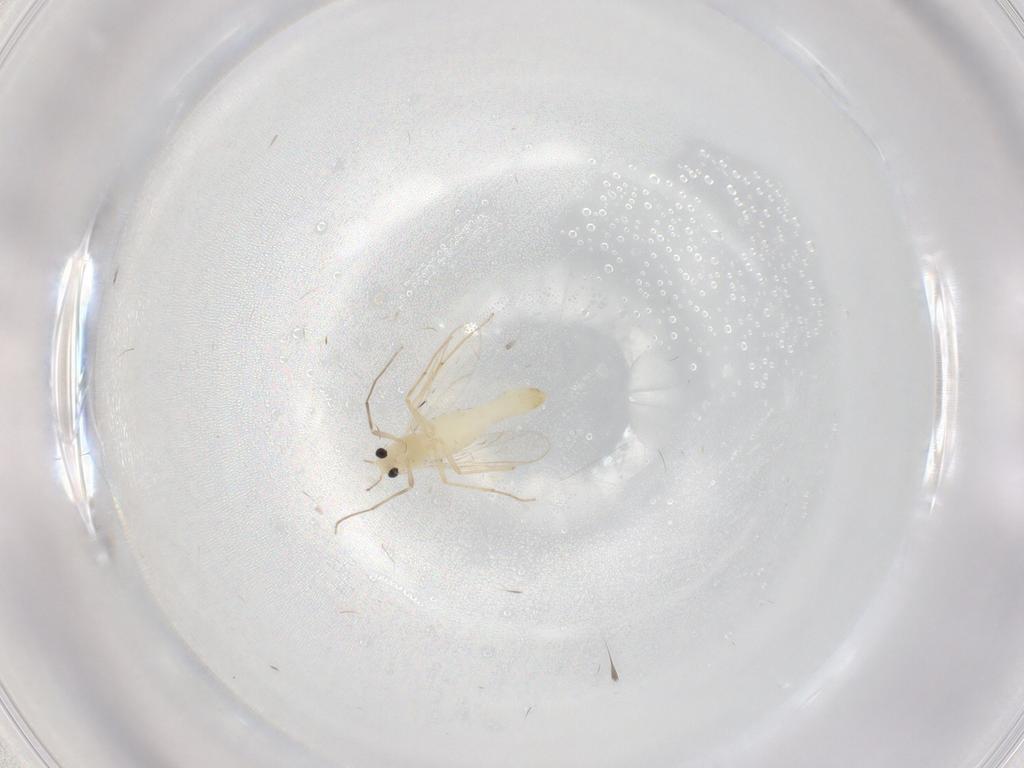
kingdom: Animalia
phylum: Arthropoda
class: Insecta
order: Diptera
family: Chironomidae
